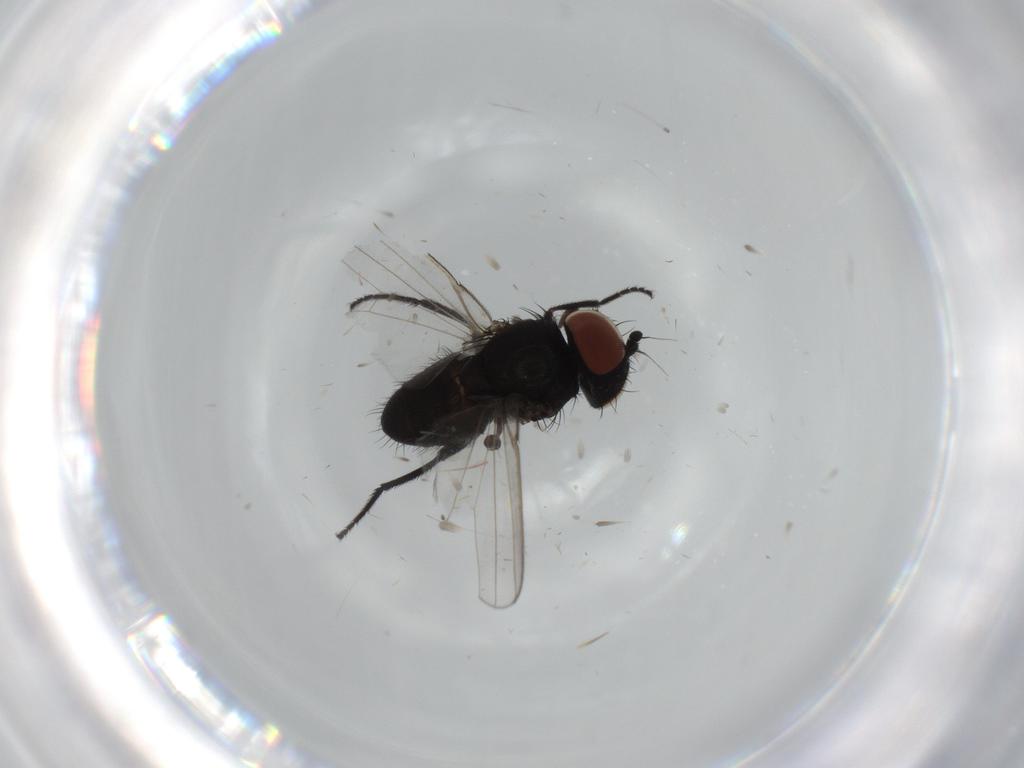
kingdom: Animalia
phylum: Arthropoda
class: Insecta
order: Diptera
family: Milichiidae
